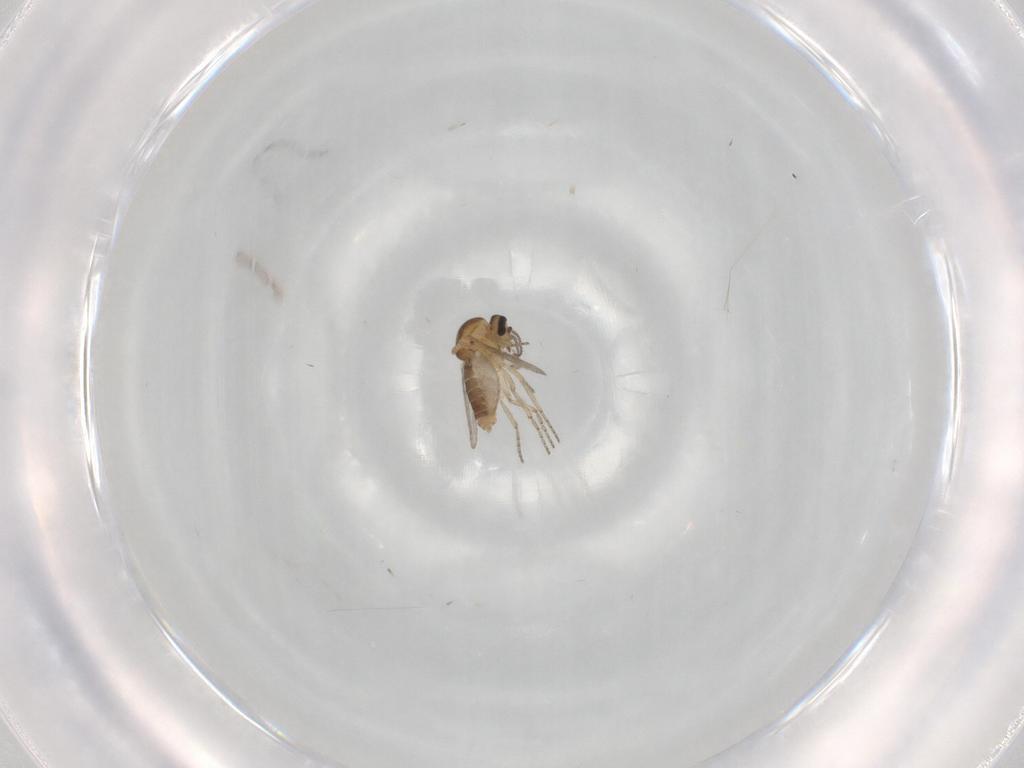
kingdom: Animalia
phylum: Arthropoda
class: Insecta
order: Diptera
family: Ceratopogonidae
